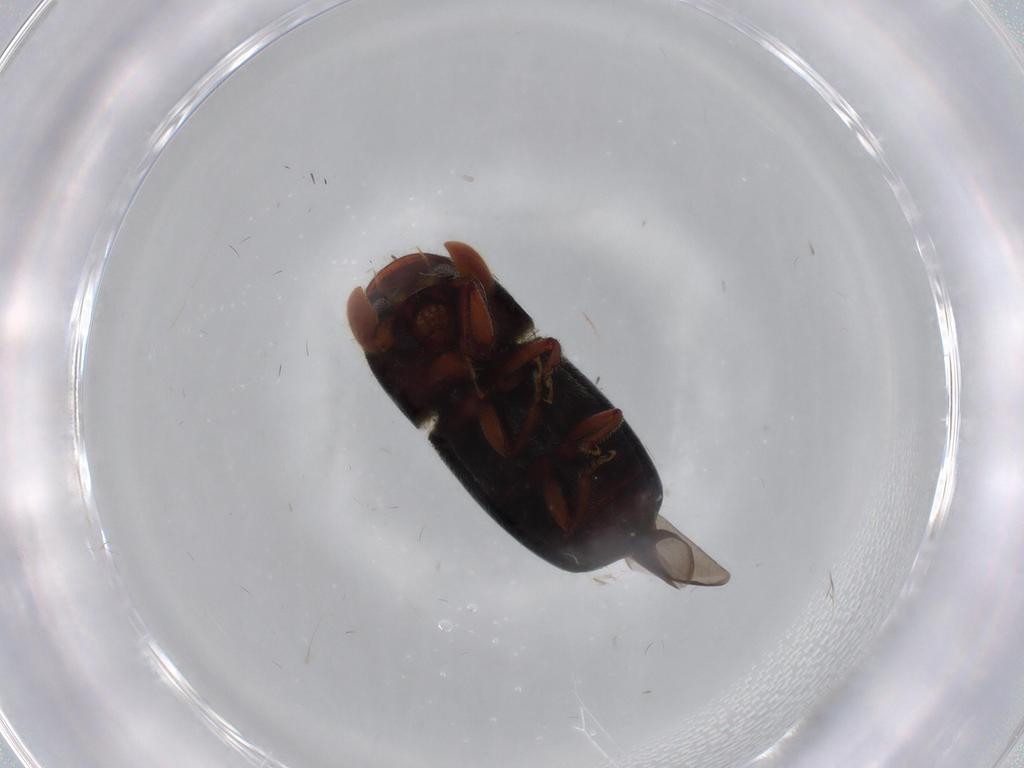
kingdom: Animalia
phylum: Arthropoda
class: Insecta
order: Coleoptera
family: Curculionidae
